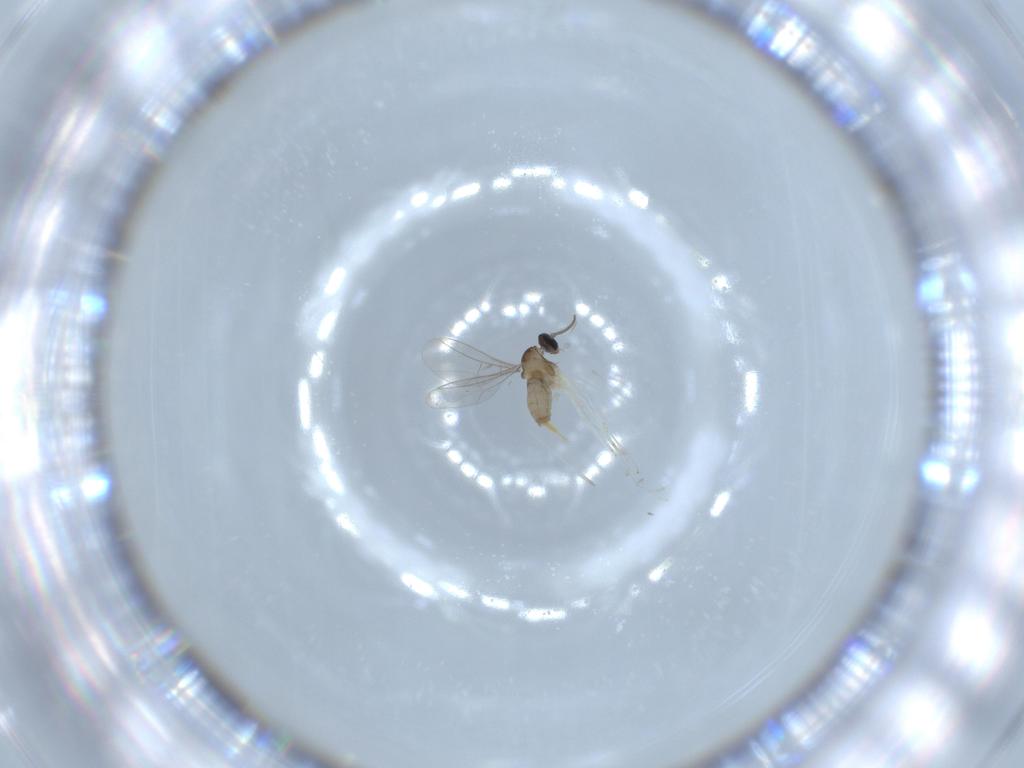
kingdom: Animalia
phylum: Arthropoda
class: Insecta
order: Diptera
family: Cecidomyiidae
